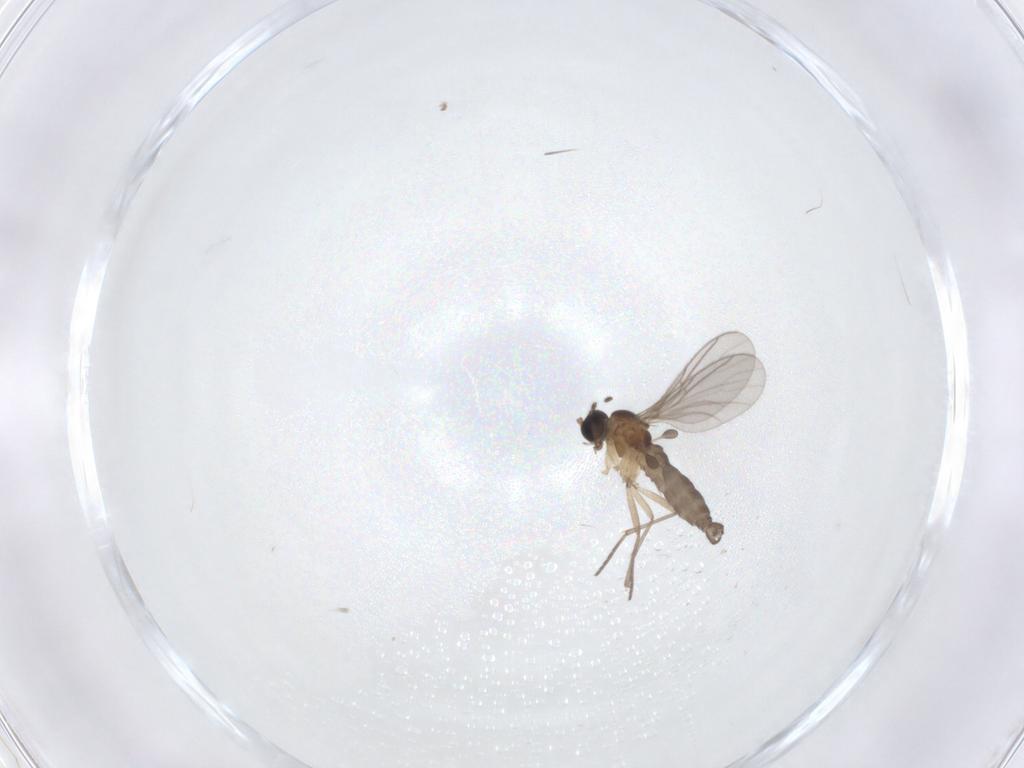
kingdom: Animalia
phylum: Arthropoda
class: Insecta
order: Diptera
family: Sciaridae
